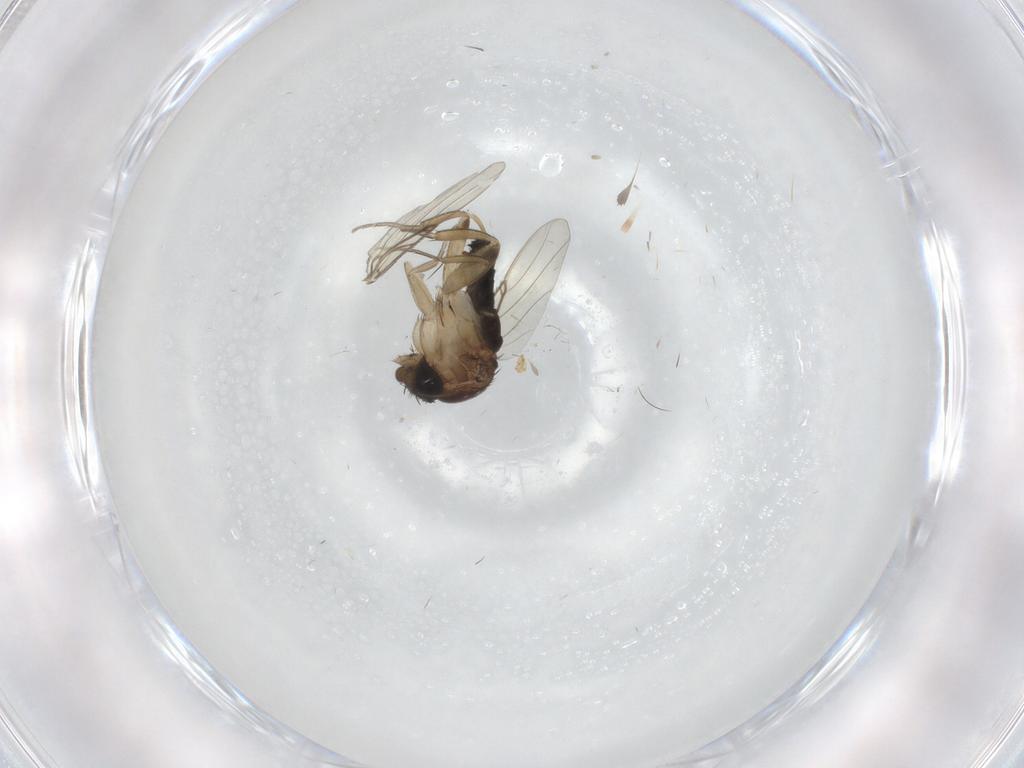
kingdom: Animalia
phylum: Arthropoda
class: Insecta
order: Diptera
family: Phoridae
